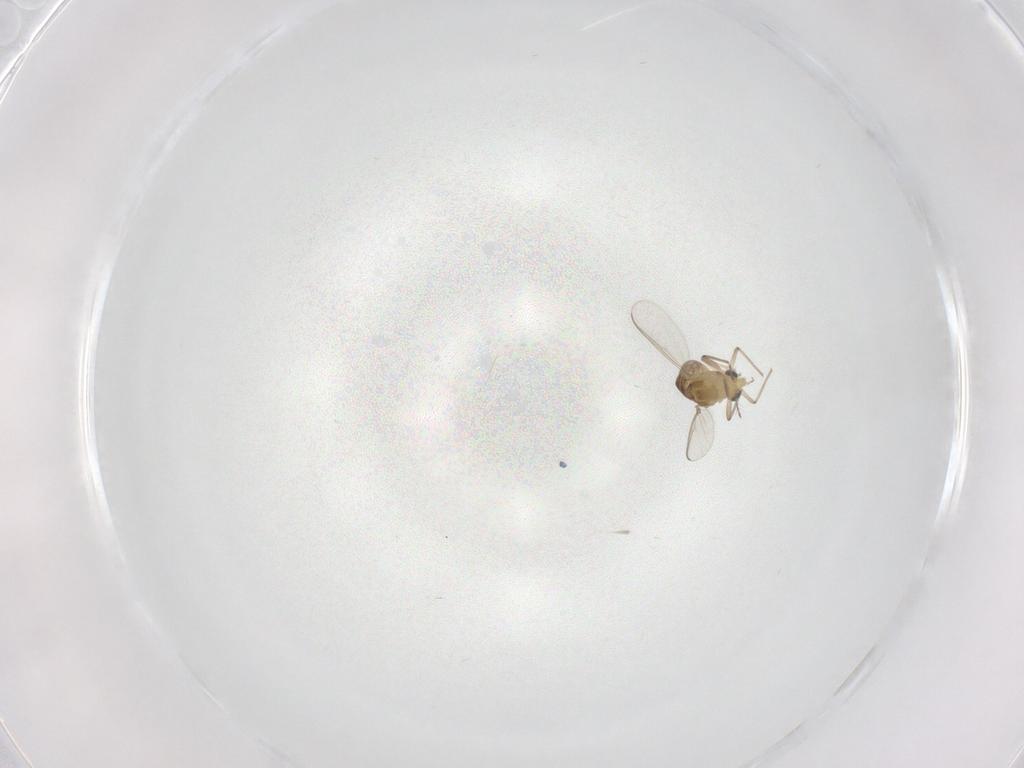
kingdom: Animalia
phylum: Arthropoda
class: Insecta
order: Diptera
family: Chironomidae
